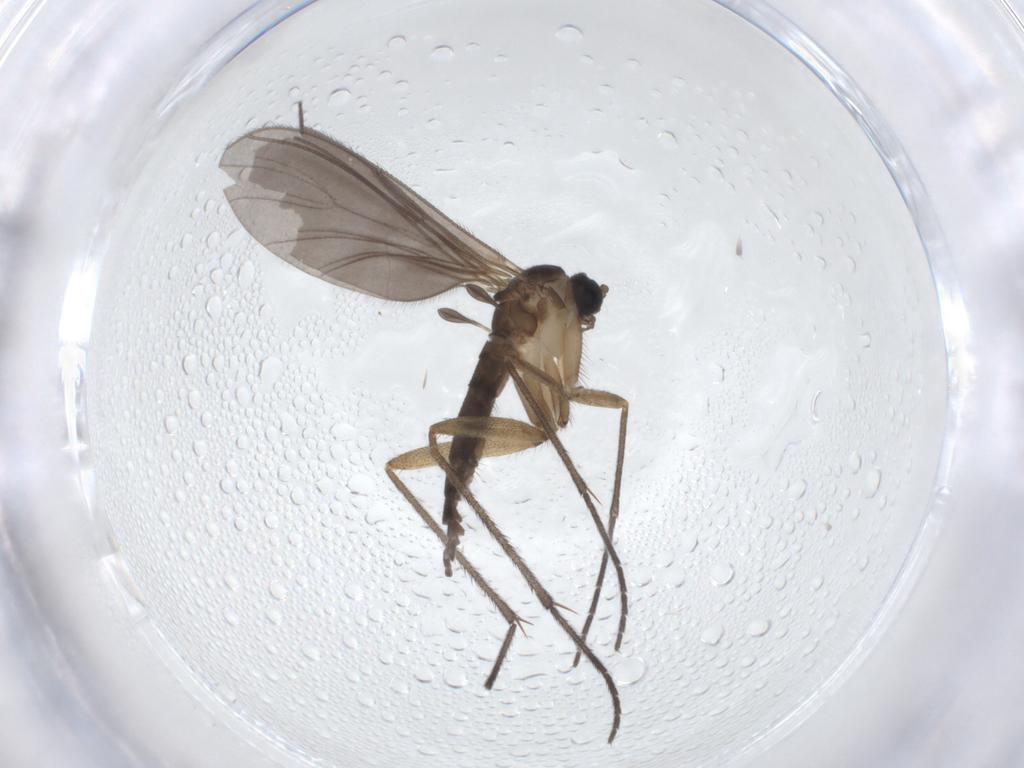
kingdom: Animalia
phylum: Arthropoda
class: Insecta
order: Diptera
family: Sciaridae
